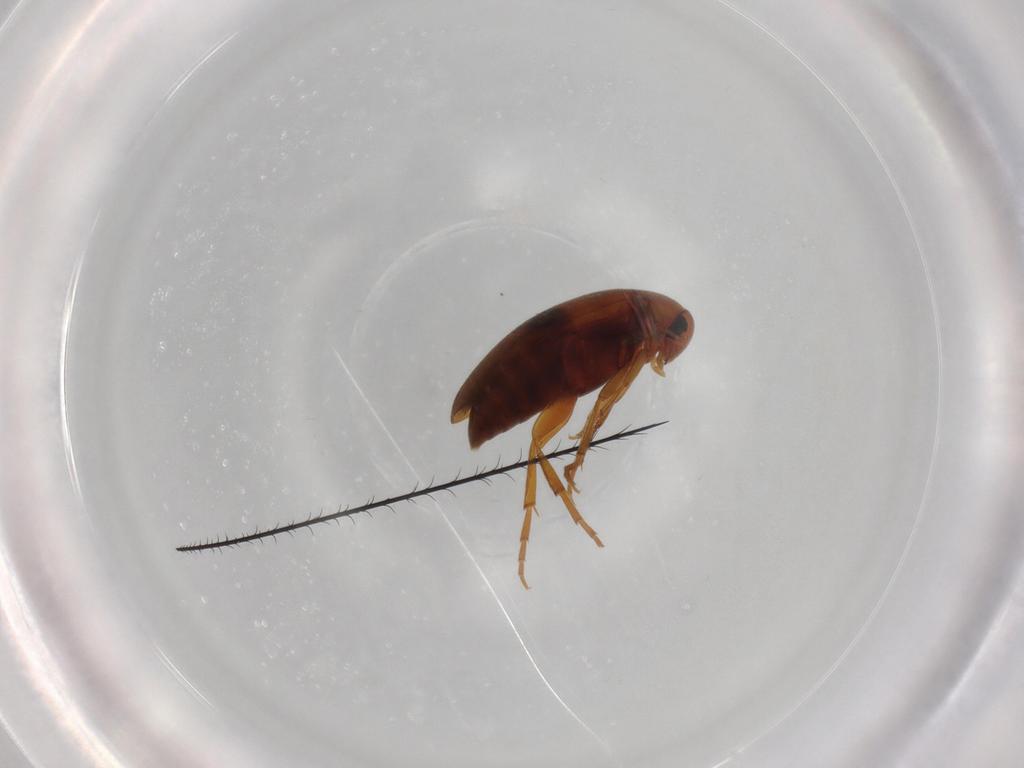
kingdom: Animalia
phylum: Arthropoda
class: Insecta
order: Coleoptera
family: Scraptiidae
